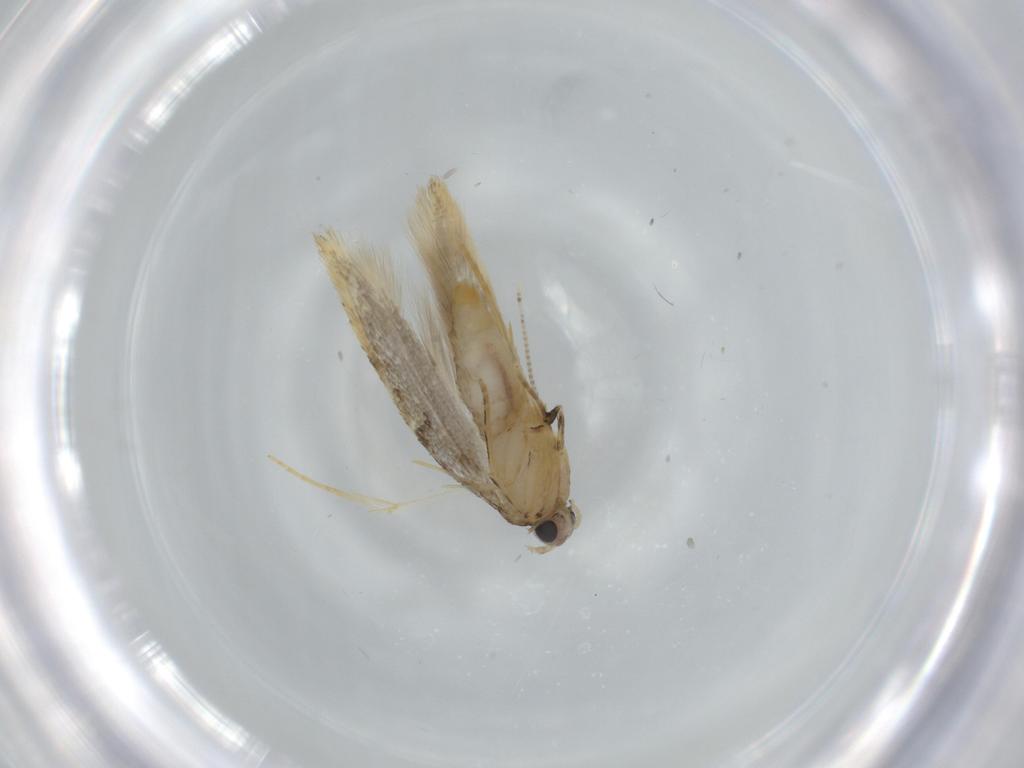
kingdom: Animalia
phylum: Arthropoda
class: Insecta
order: Lepidoptera
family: Tineidae
